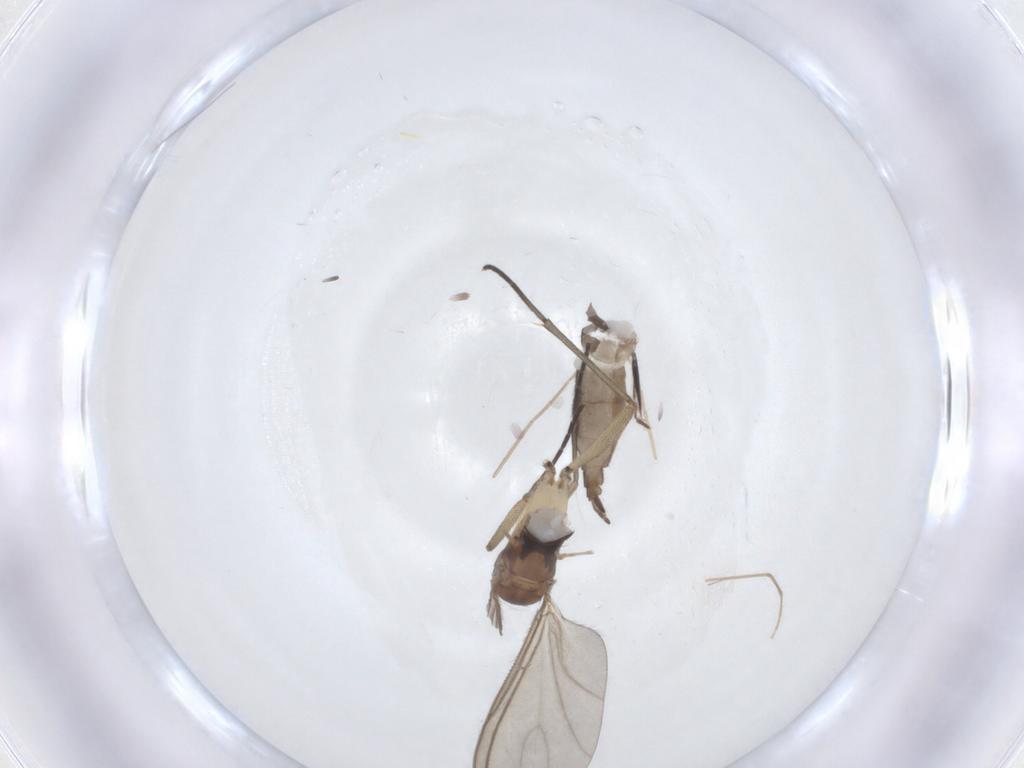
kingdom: Animalia
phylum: Arthropoda
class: Insecta
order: Diptera
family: Sciaridae
